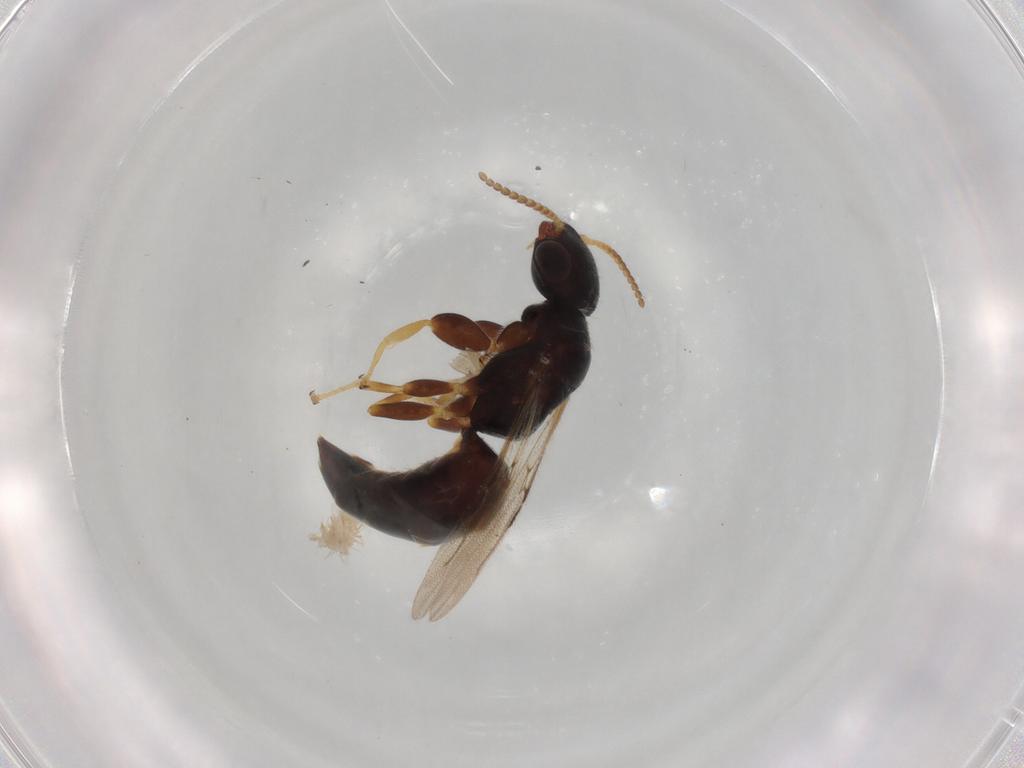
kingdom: Animalia
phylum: Arthropoda
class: Insecta
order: Hymenoptera
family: Bethylidae
